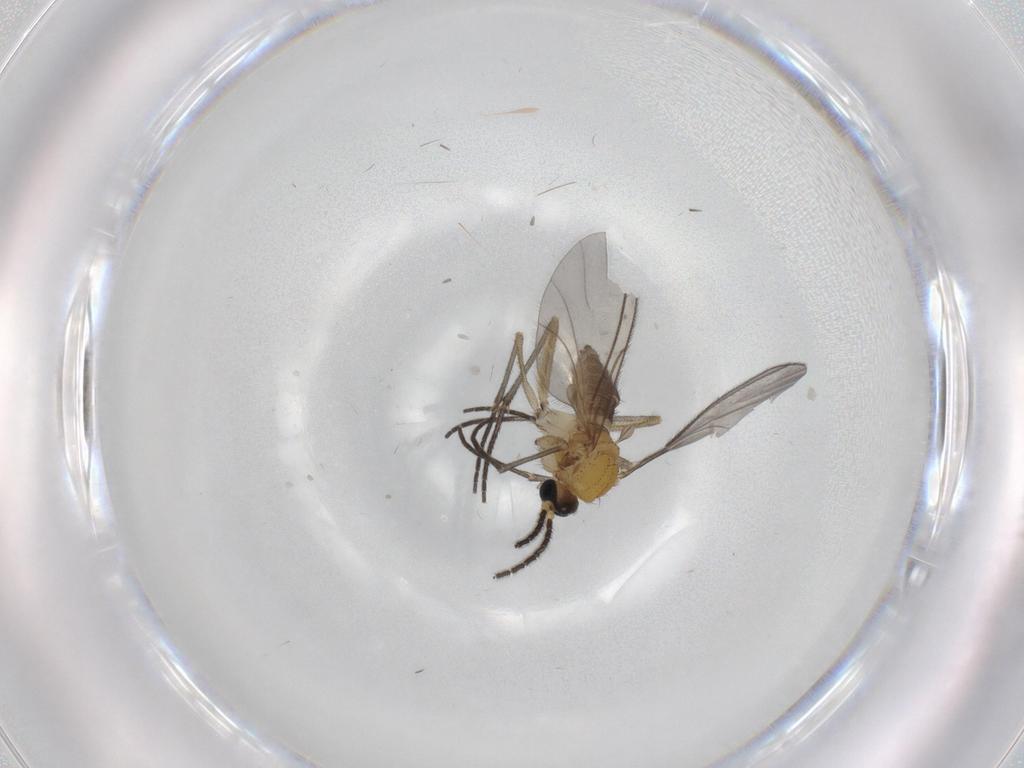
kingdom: Animalia
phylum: Arthropoda
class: Insecta
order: Diptera
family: Sciaridae
